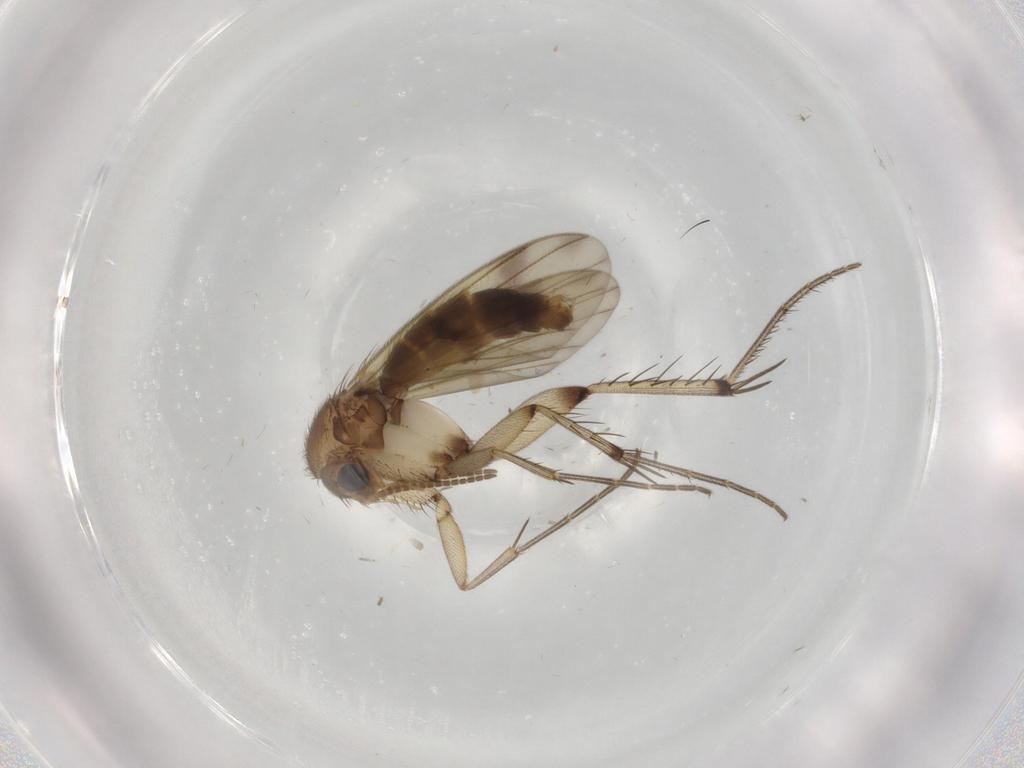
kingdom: Animalia
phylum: Arthropoda
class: Insecta
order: Diptera
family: Mycetophilidae
